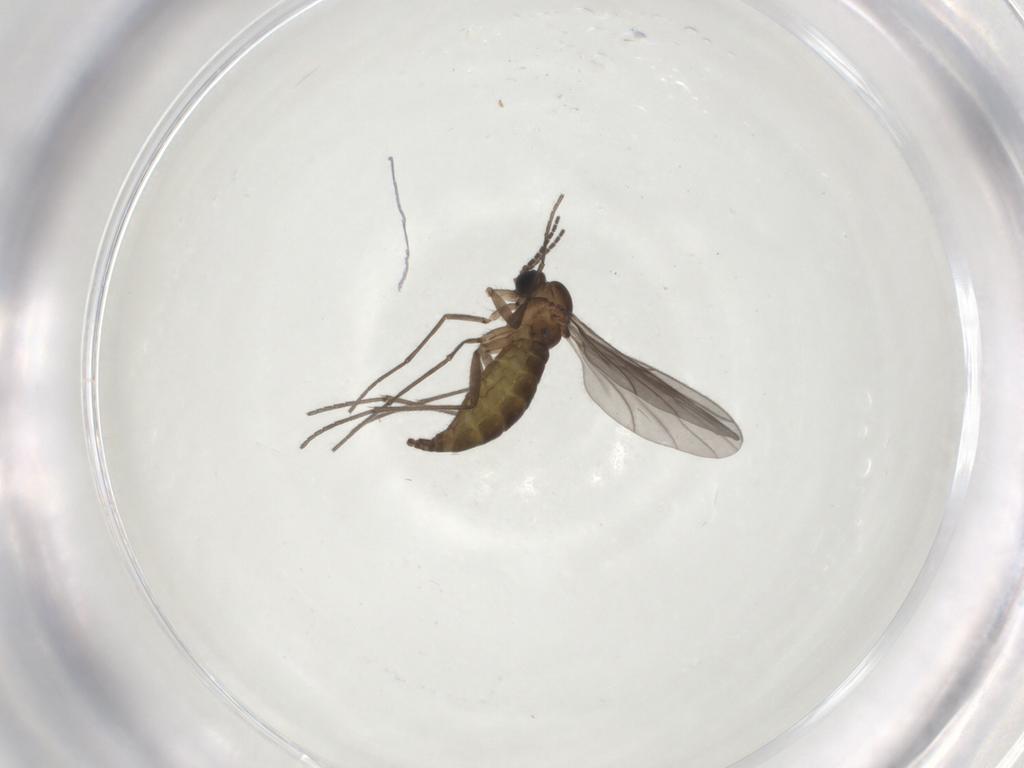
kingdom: Animalia
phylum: Arthropoda
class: Insecta
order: Diptera
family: Sciaridae
